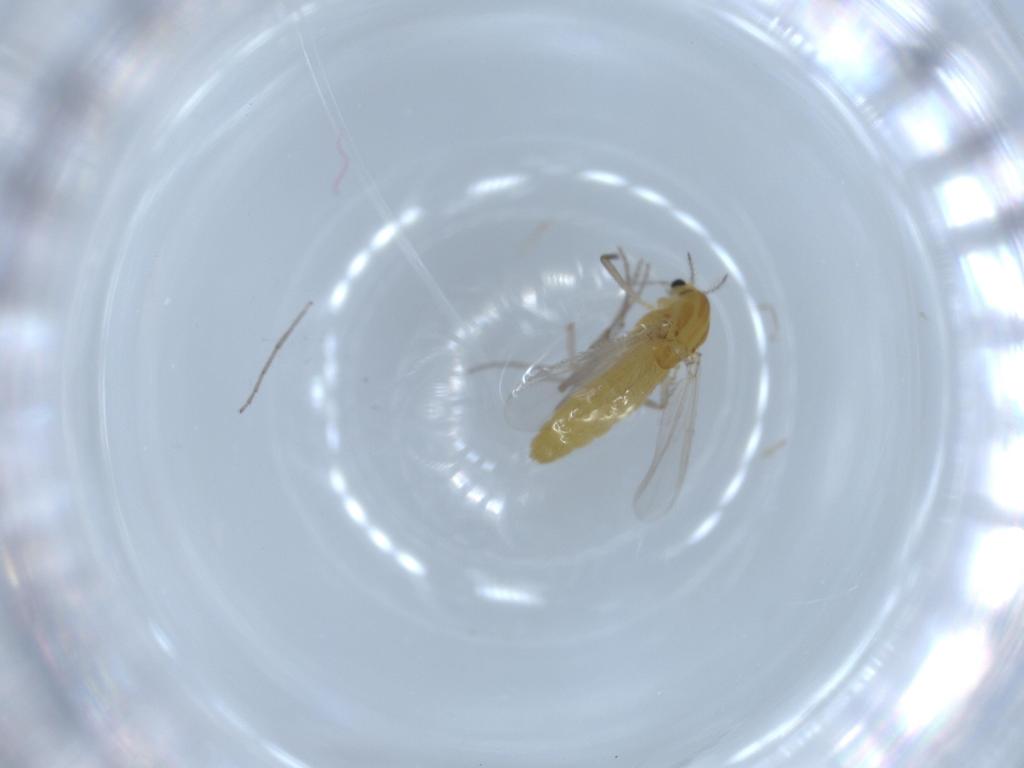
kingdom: Animalia
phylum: Arthropoda
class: Insecta
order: Diptera
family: Chironomidae
